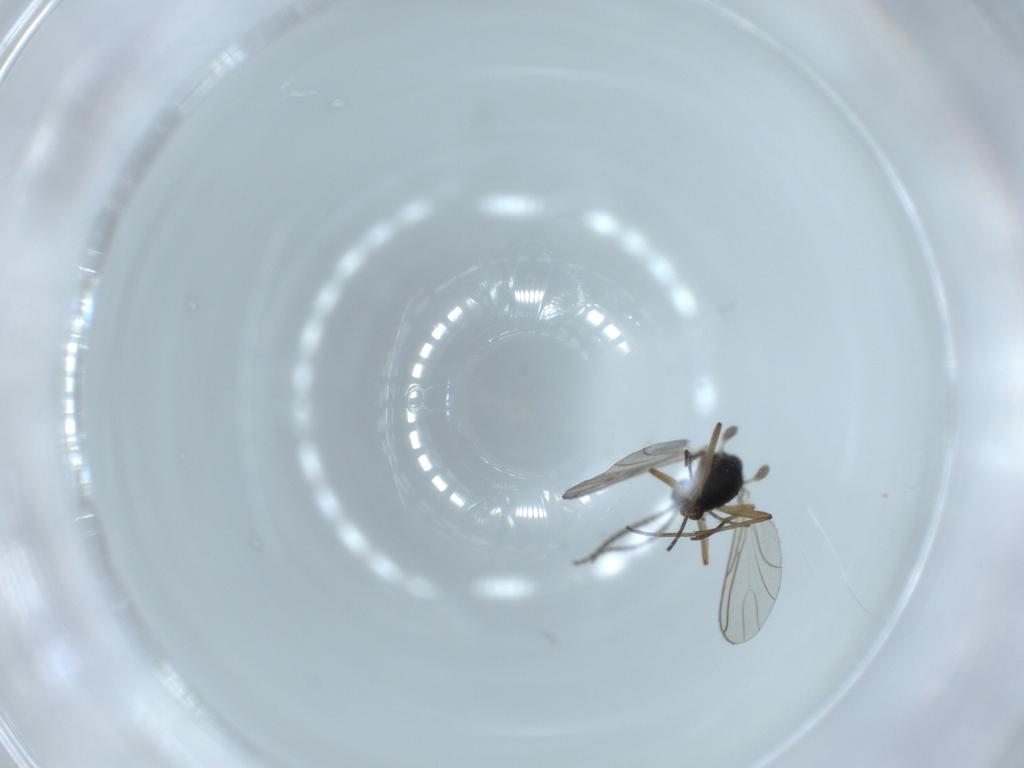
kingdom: Animalia
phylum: Arthropoda
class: Insecta
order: Diptera
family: Sciaridae
